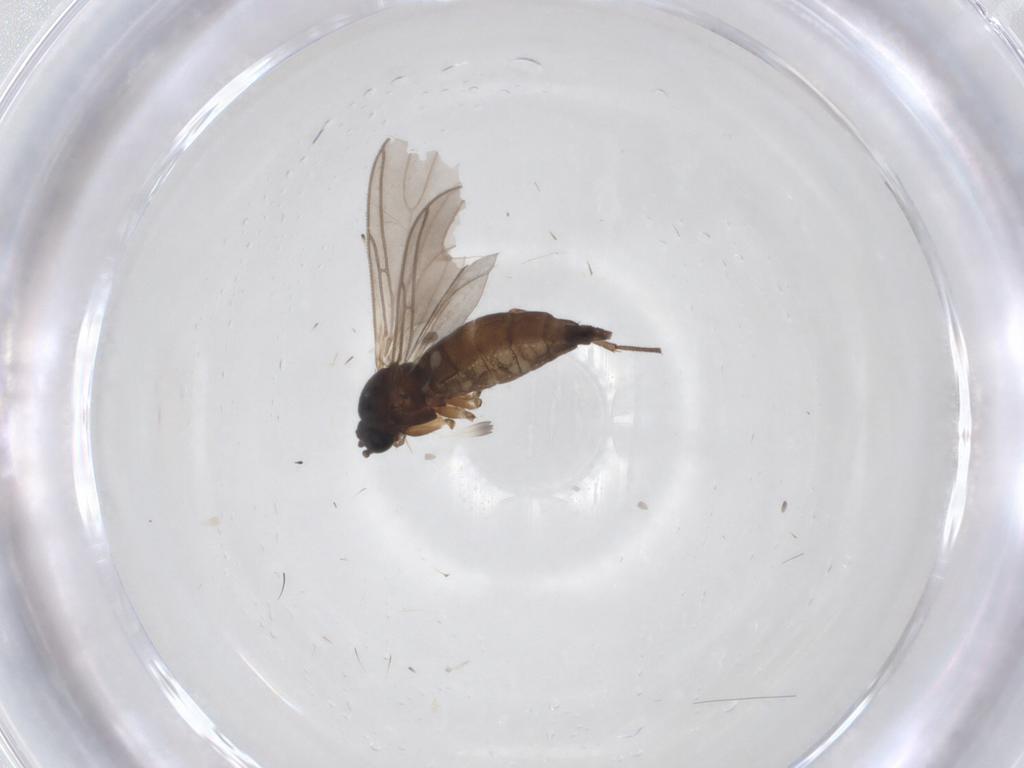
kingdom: Animalia
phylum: Arthropoda
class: Insecta
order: Diptera
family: Sciaridae
